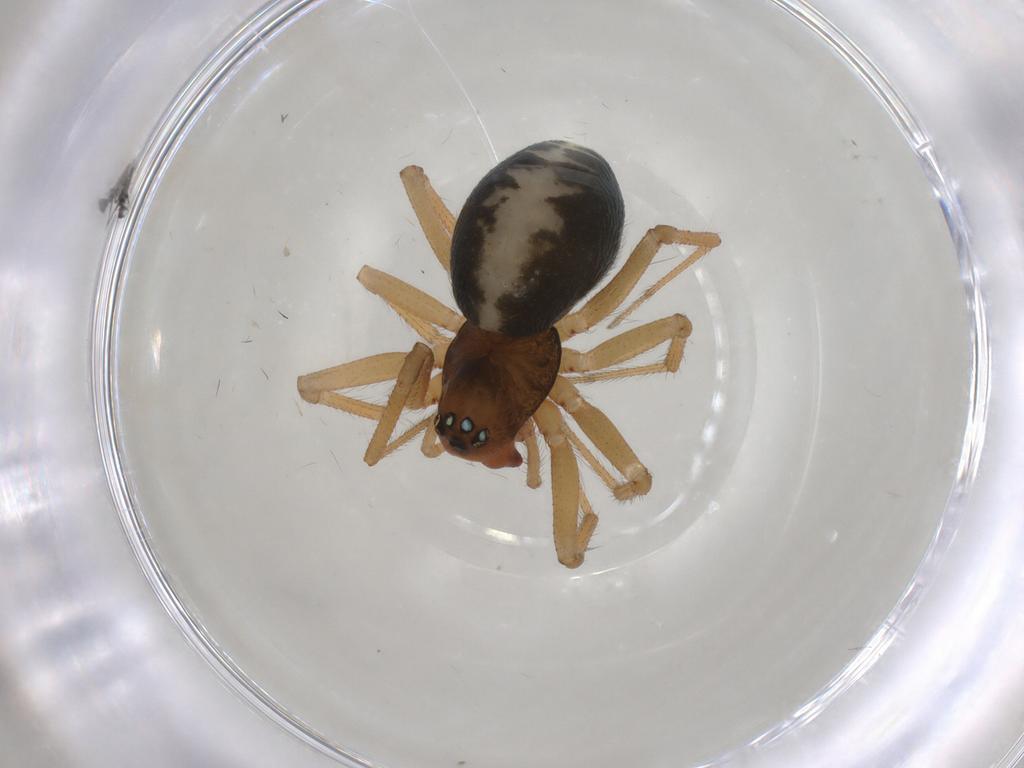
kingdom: Animalia
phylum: Arthropoda
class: Arachnida
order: Araneae
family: Linyphiidae
